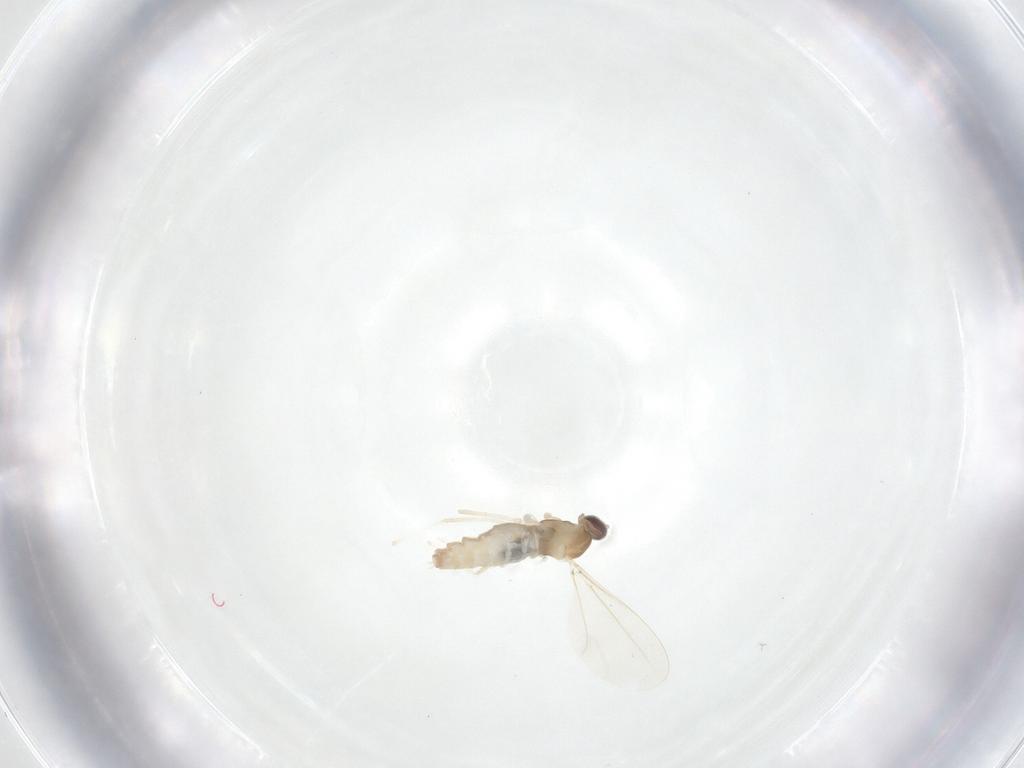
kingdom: Animalia
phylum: Arthropoda
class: Insecta
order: Diptera
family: Cecidomyiidae
